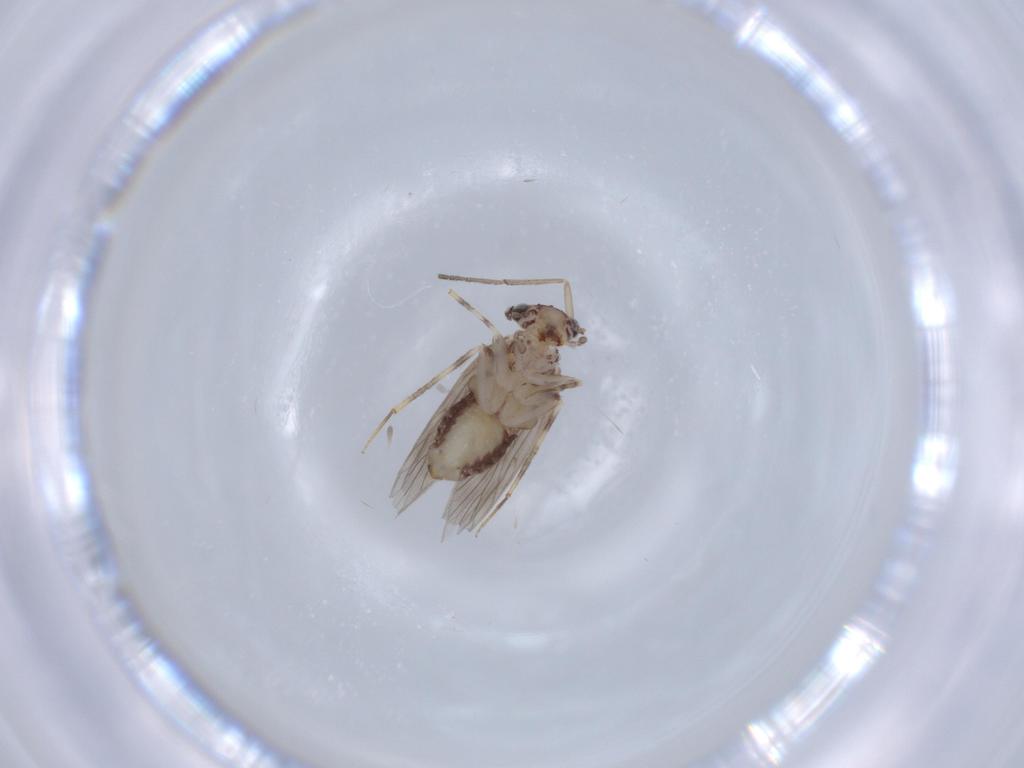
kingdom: Animalia
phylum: Arthropoda
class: Insecta
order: Psocodea
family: Lepidopsocidae
